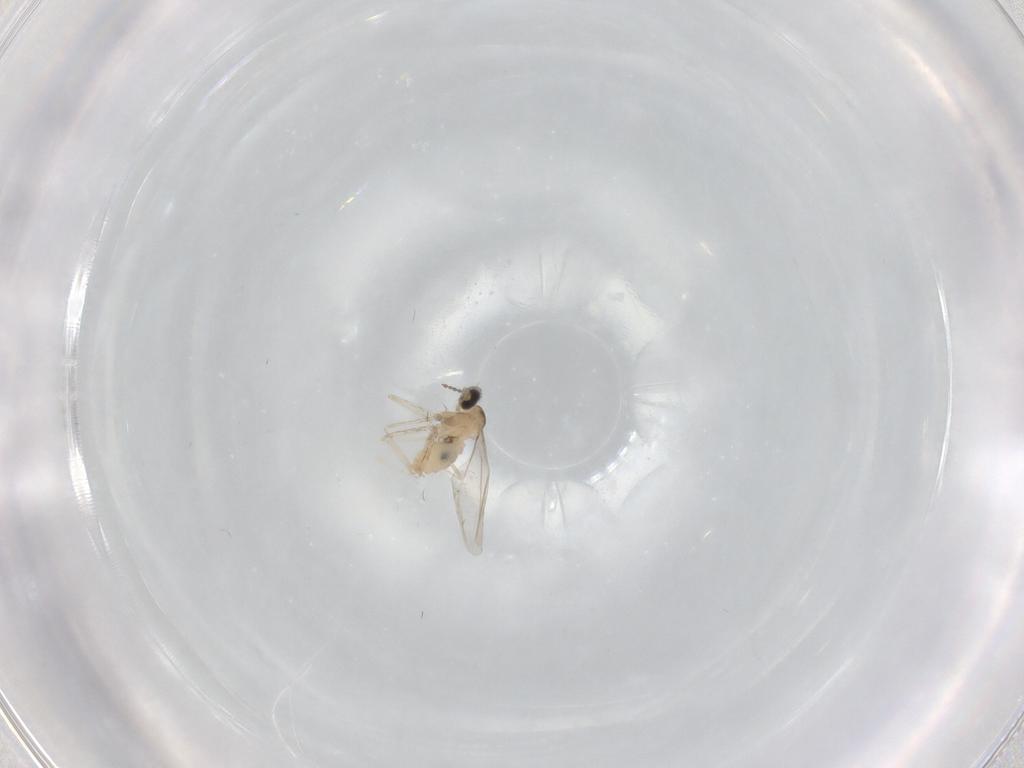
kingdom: Animalia
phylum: Arthropoda
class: Insecta
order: Diptera
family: Cecidomyiidae
